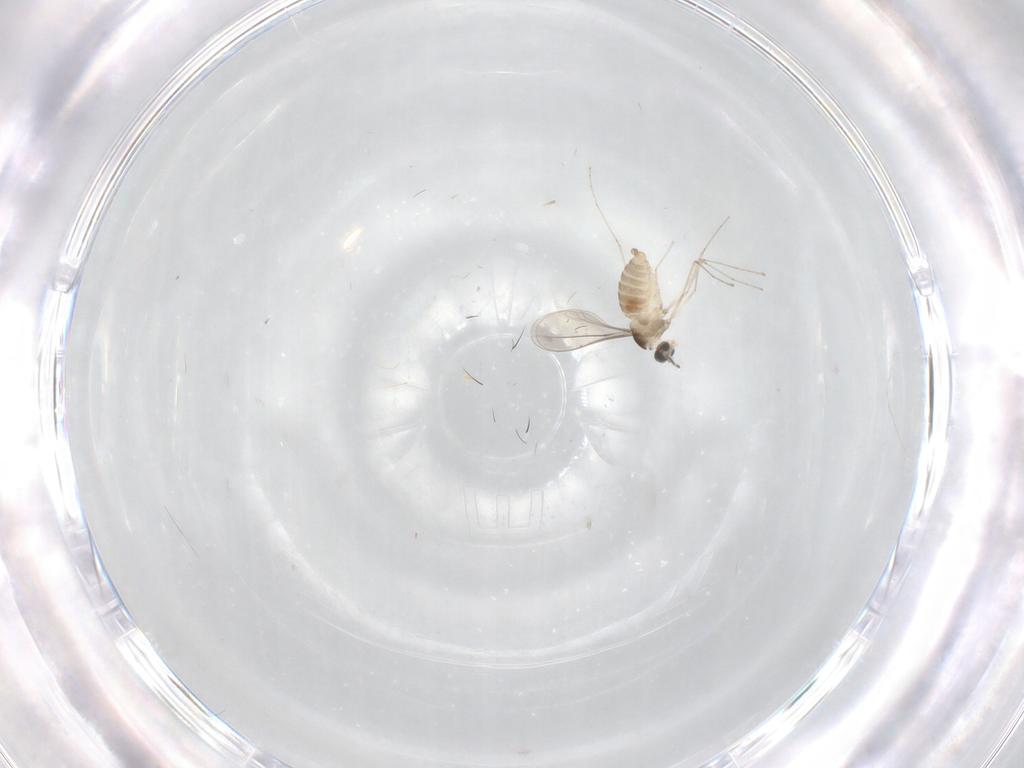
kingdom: Animalia
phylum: Arthropoda
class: Insecta
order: Diptera
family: Cecidomyiidae
